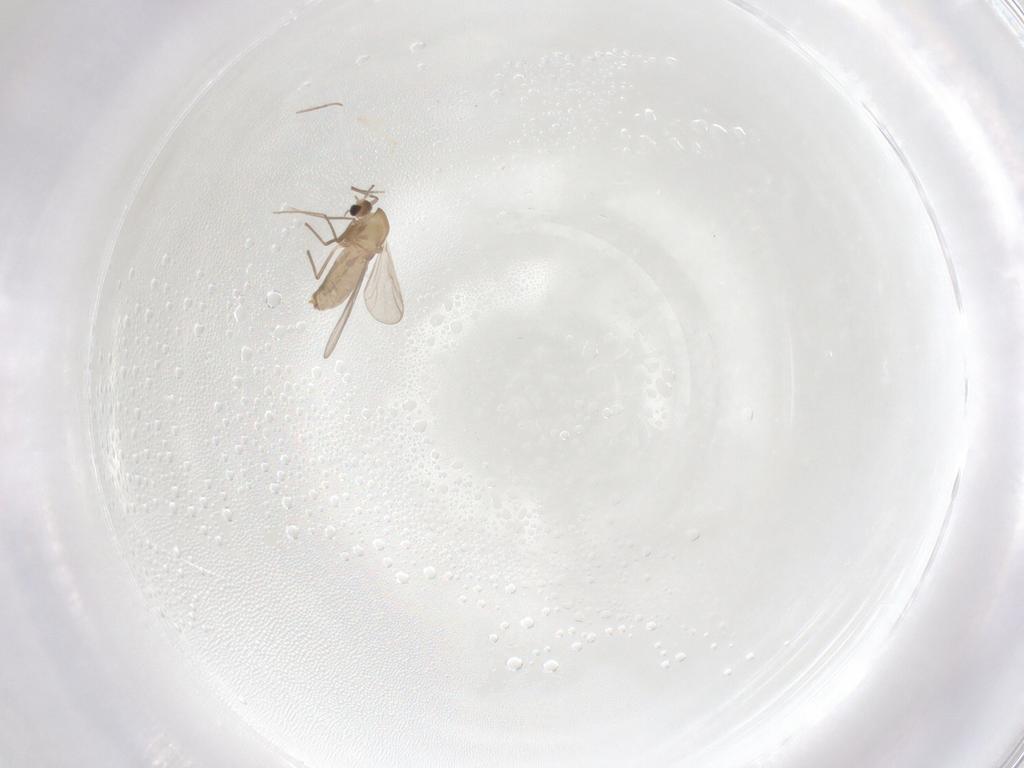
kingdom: Animalia
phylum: Arthropoda
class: Insecta
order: Diptera
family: Chironomidae
